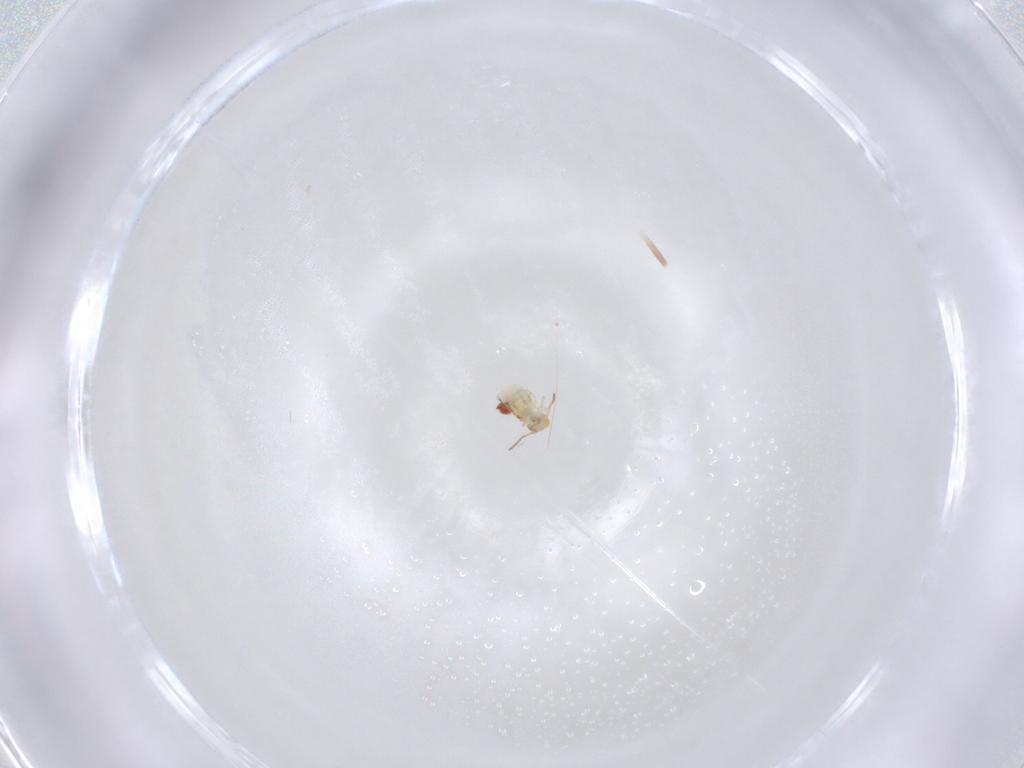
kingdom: Animalia
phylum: Arthropoda
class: Collembola
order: Symphypleona
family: Bourletiellidae
